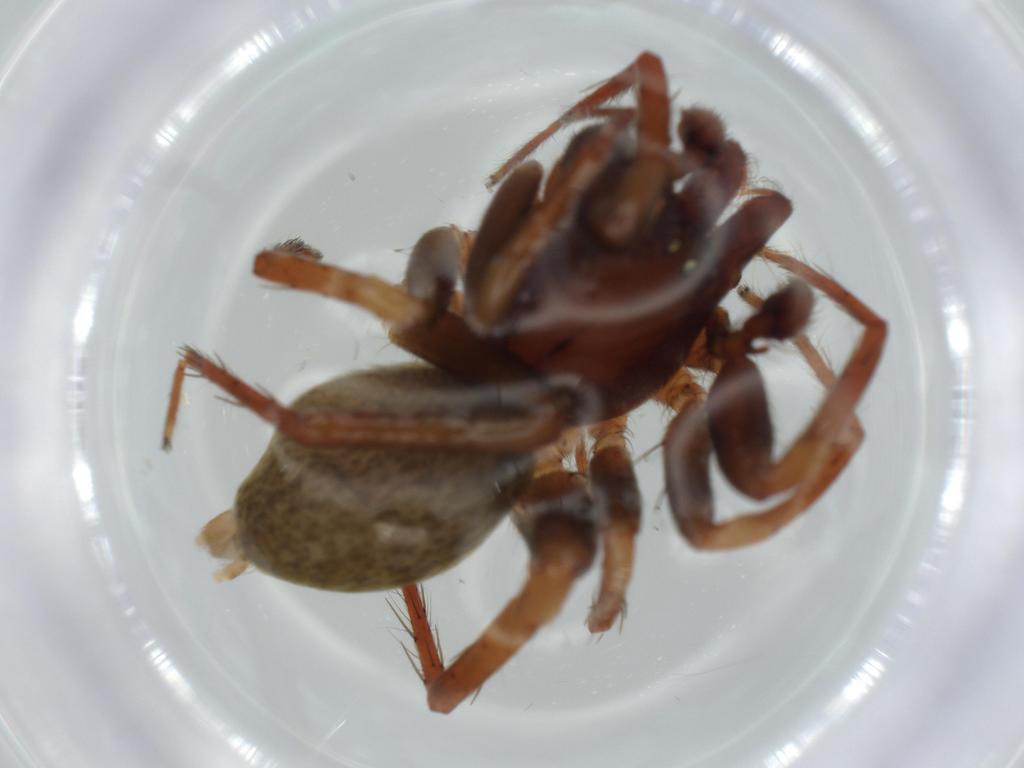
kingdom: Animalia
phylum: Arthropoda
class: Arachnida
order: Araneae
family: Anyphaenidae
